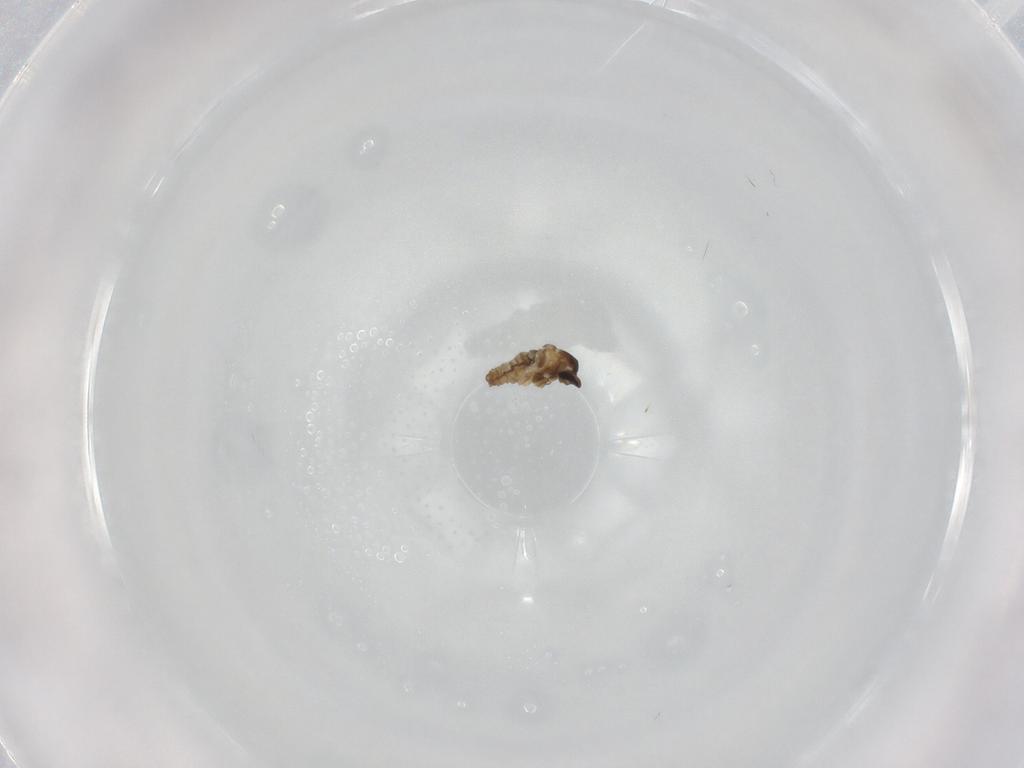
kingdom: Animalia
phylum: Arthropoda
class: Insecta
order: Diptera
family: Cecidomyiidae
